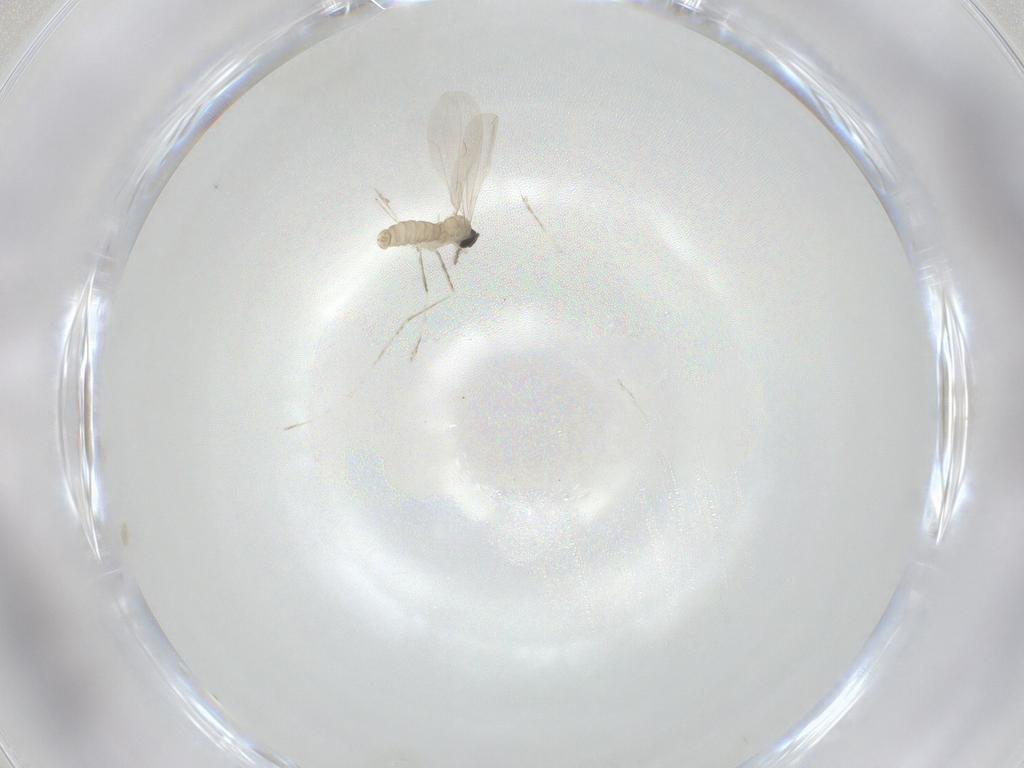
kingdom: Animalia
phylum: Arthropoda
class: Insecta
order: Diptera
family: Cecidomyiidae
